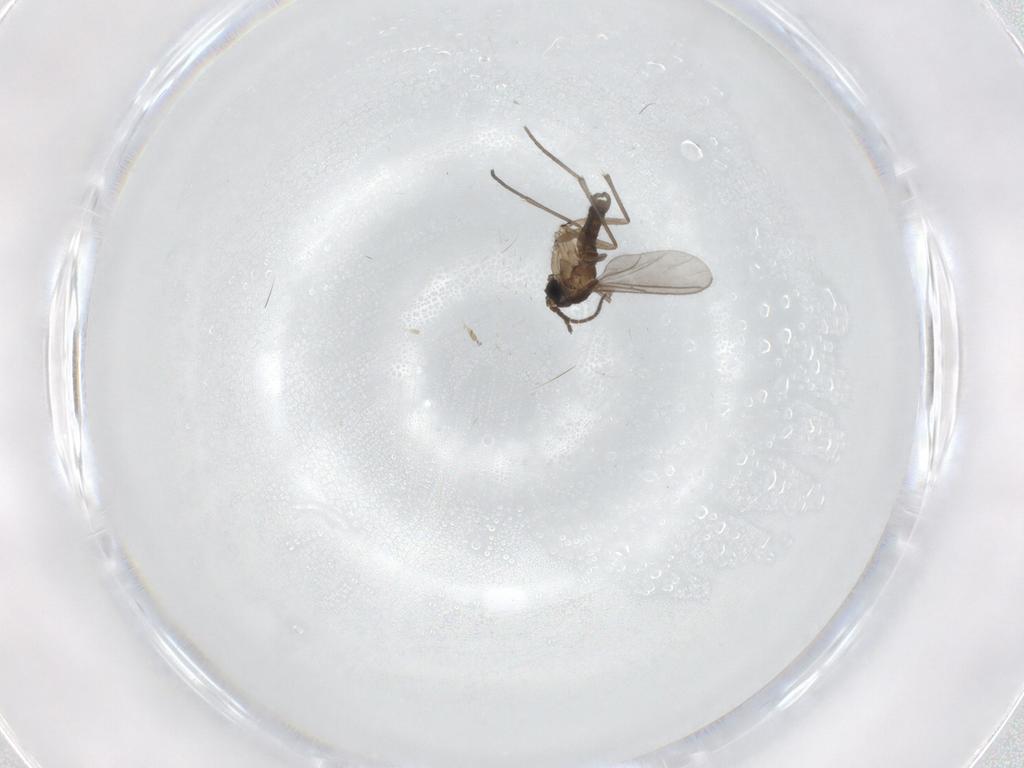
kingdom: Animalia
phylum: Arthropoda
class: Insecta
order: Diptera
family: Sciaridae
